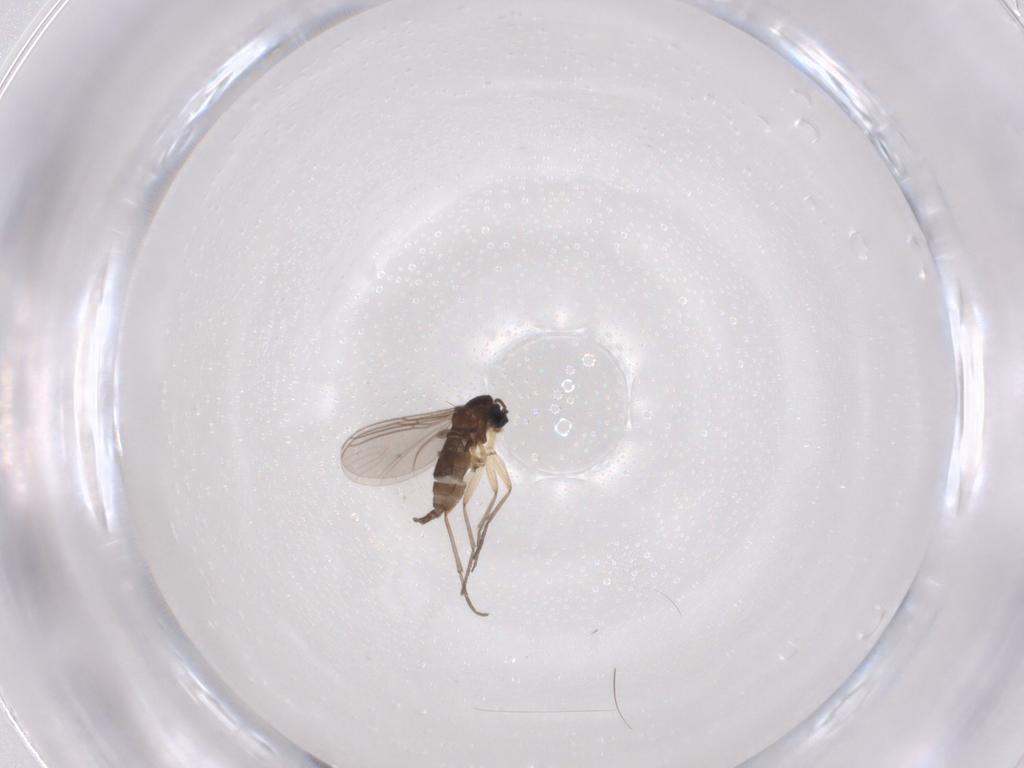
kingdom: Animalia
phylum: Arthropoda
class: Insecta
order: Diptera
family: Sciaridae
